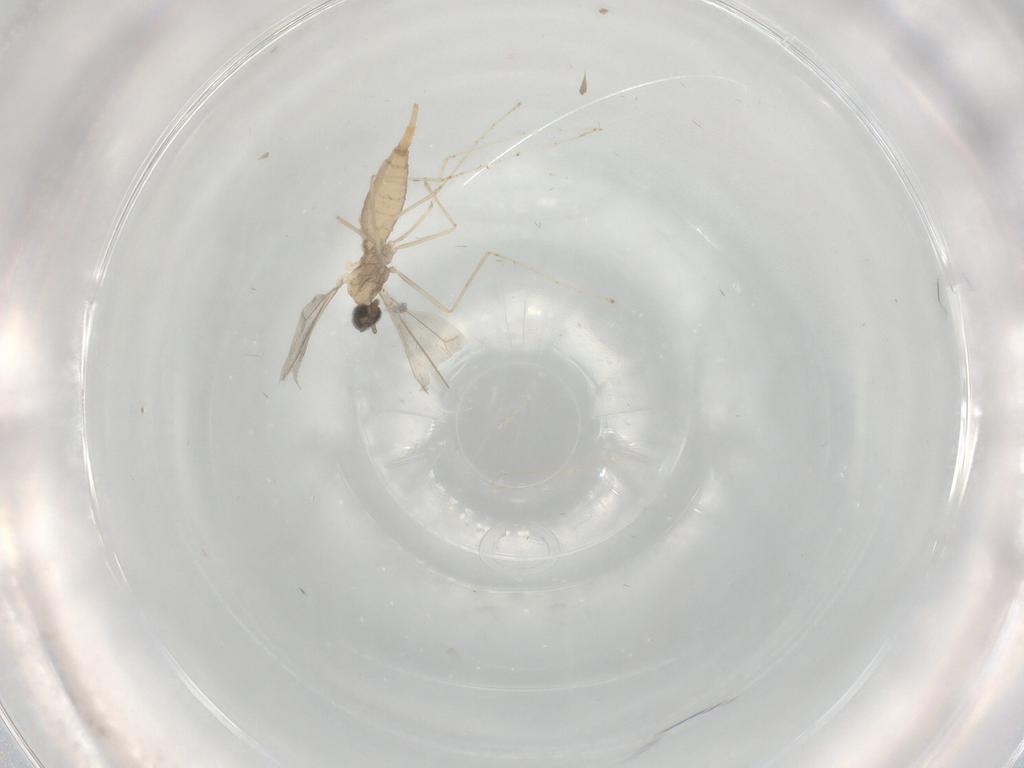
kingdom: Animalia
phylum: Arthropoda
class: Insecta
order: Diptera
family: Cecidomyiidae
